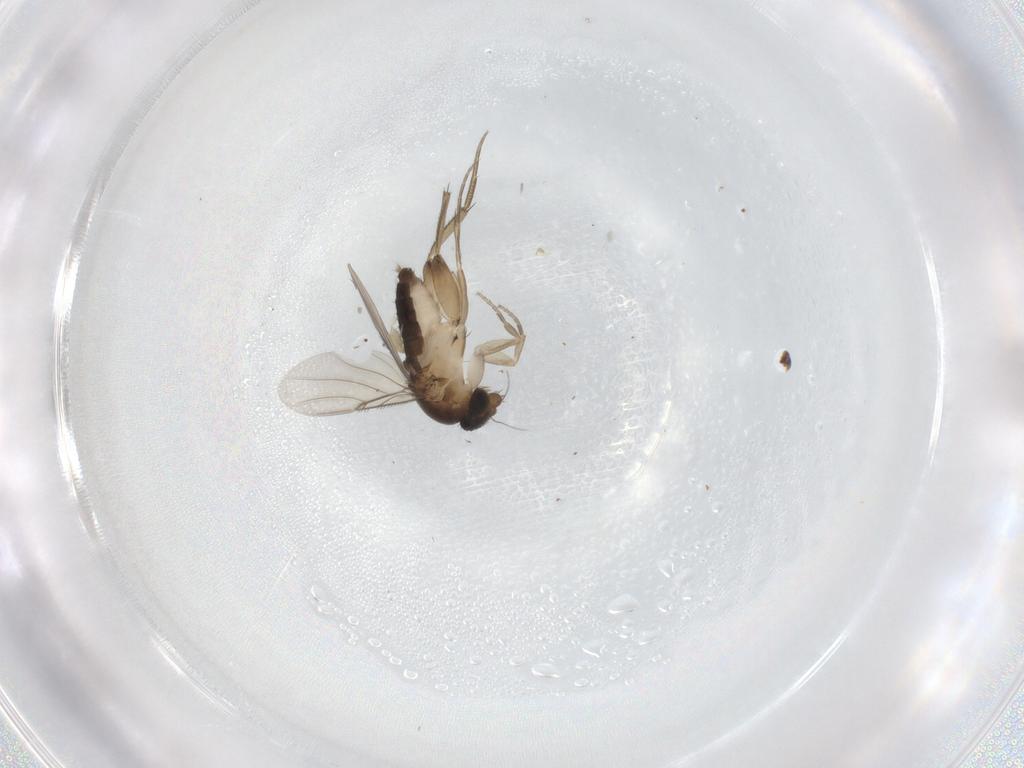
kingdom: Animalia
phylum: Arthropoda
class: Insecta
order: Diptera
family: Phoridae
